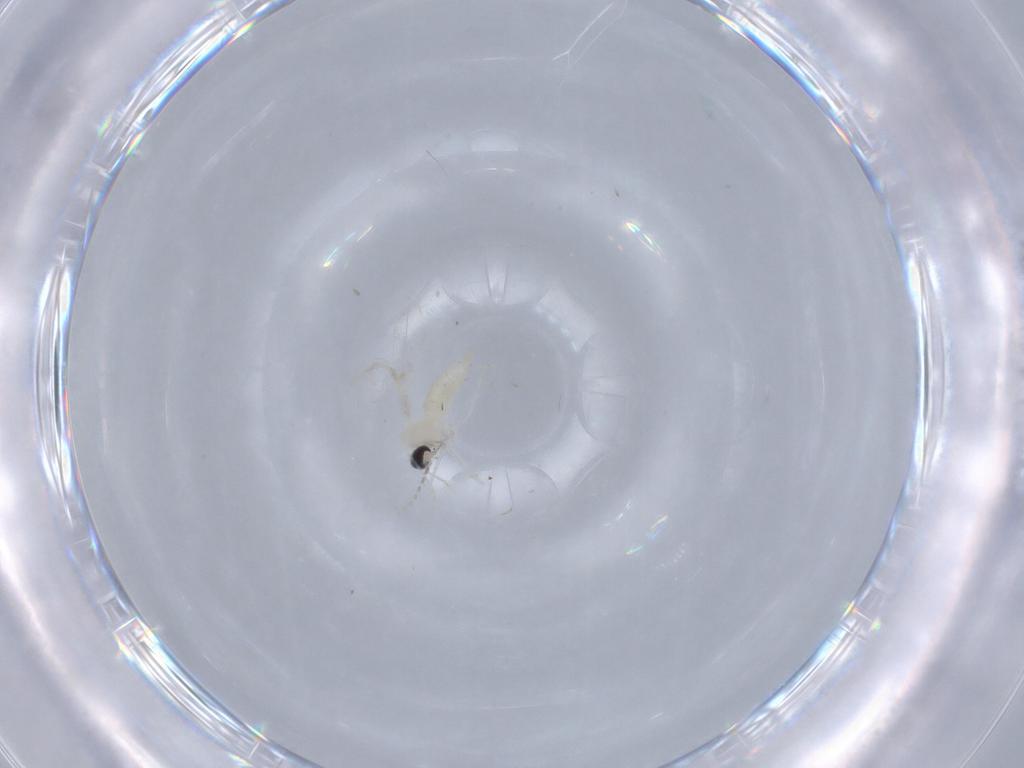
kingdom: Animalia
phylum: Arthropoda
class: Insecta
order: Diptera
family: Cecidomyiidae
